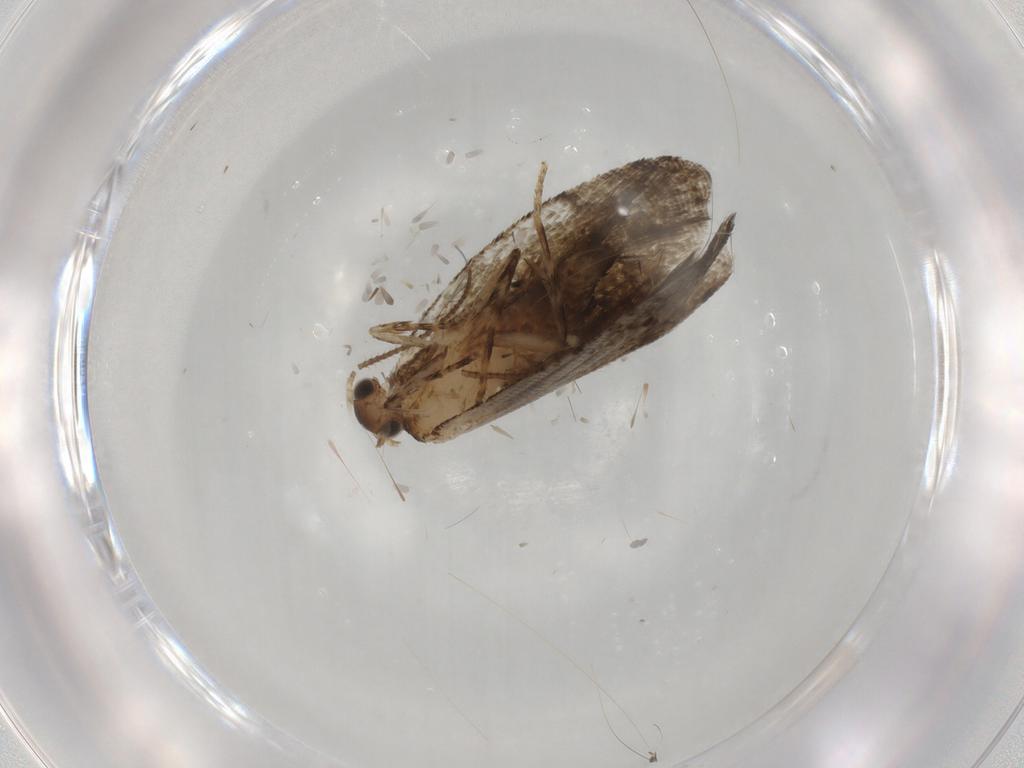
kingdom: Animalia
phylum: Arthropoda
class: Insecta
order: Lepidoptera
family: Tortricidae
